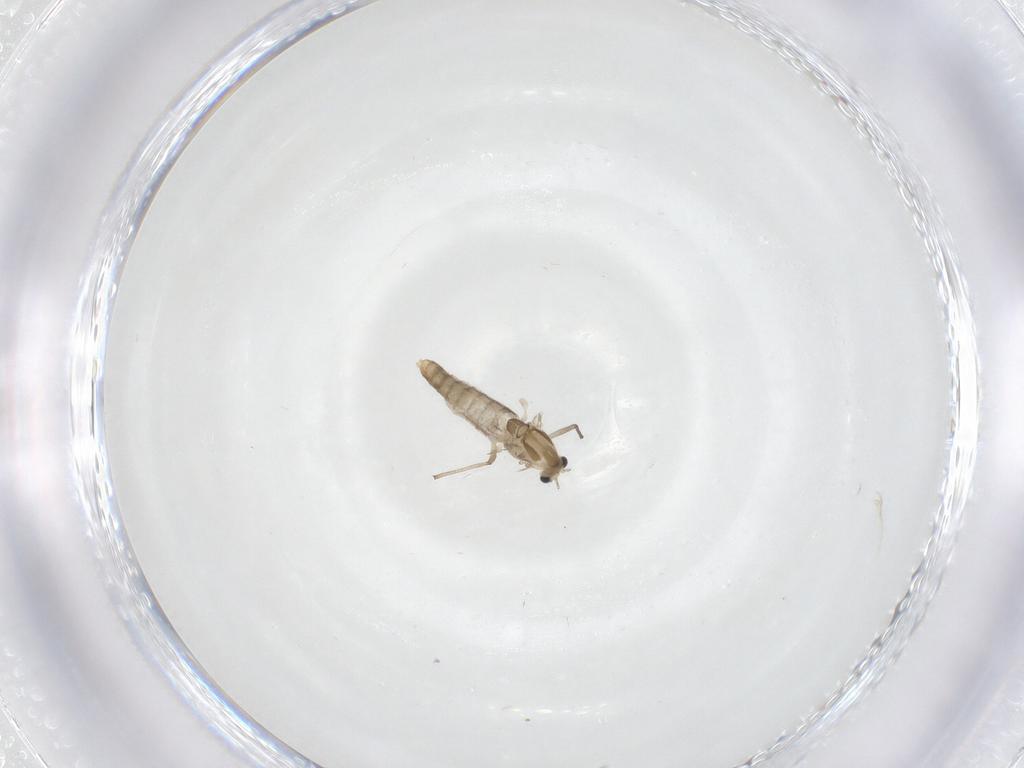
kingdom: Animalia
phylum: Arthropoda
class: Insecta
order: Diptera
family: Chironomidae
